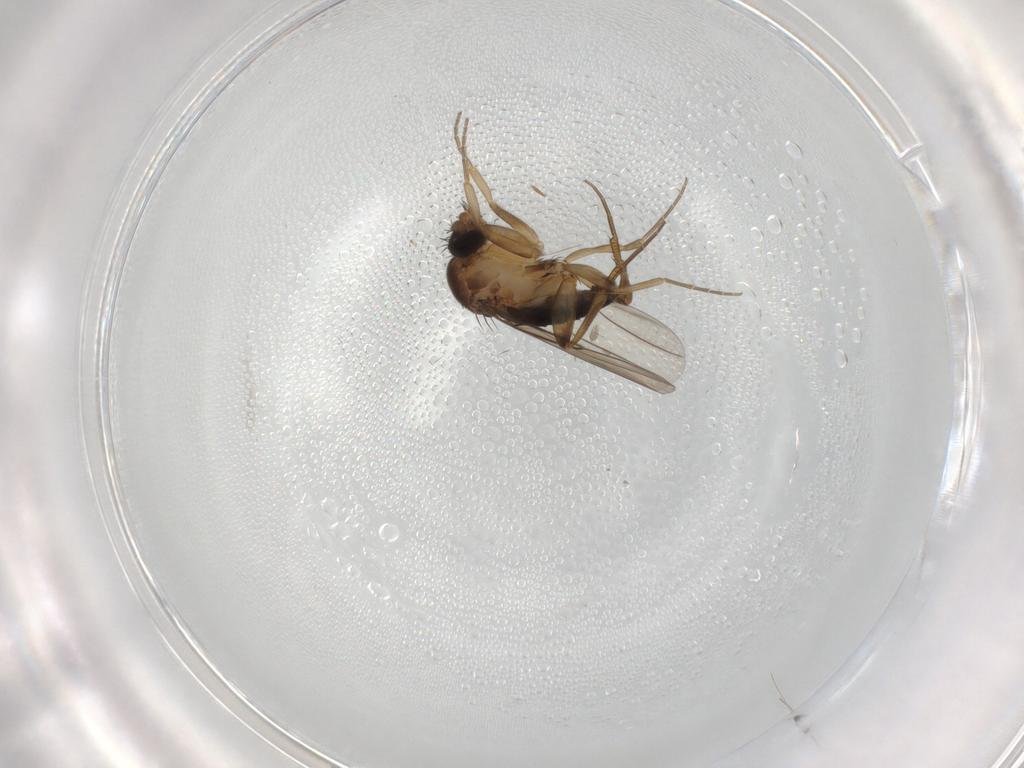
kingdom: Animalia
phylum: Arthropoda
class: Insecta
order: Diptera
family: Phoridae
